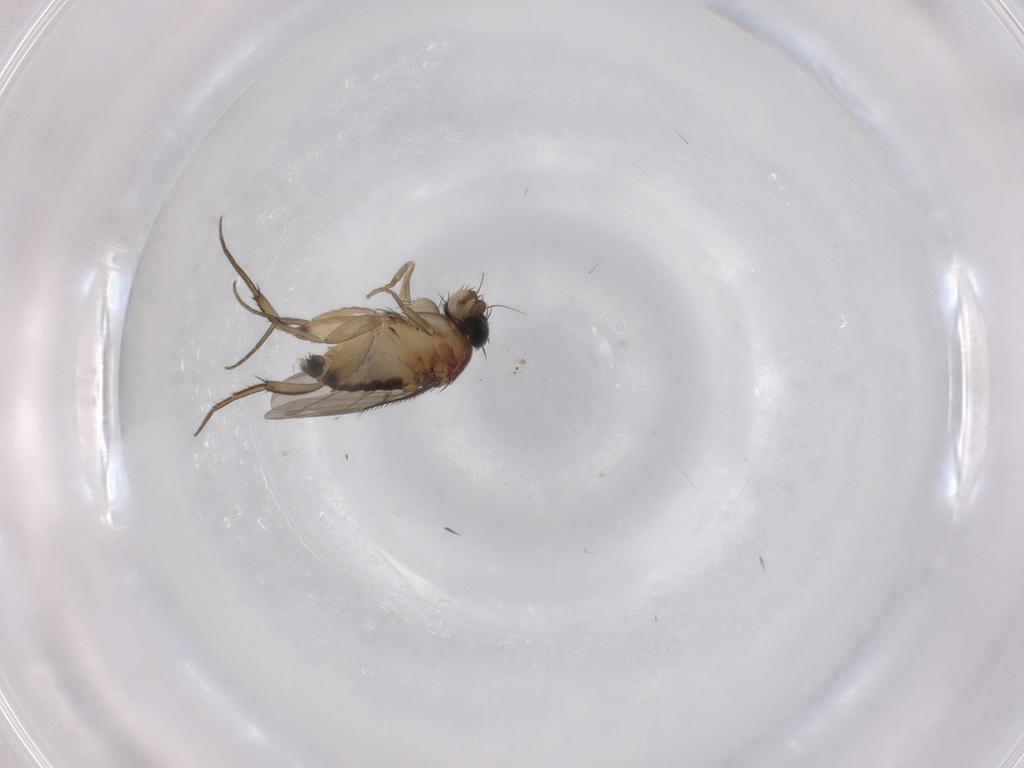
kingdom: Animalia
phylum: Arthropoda
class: Insecta
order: Diptera
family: Phoridae
